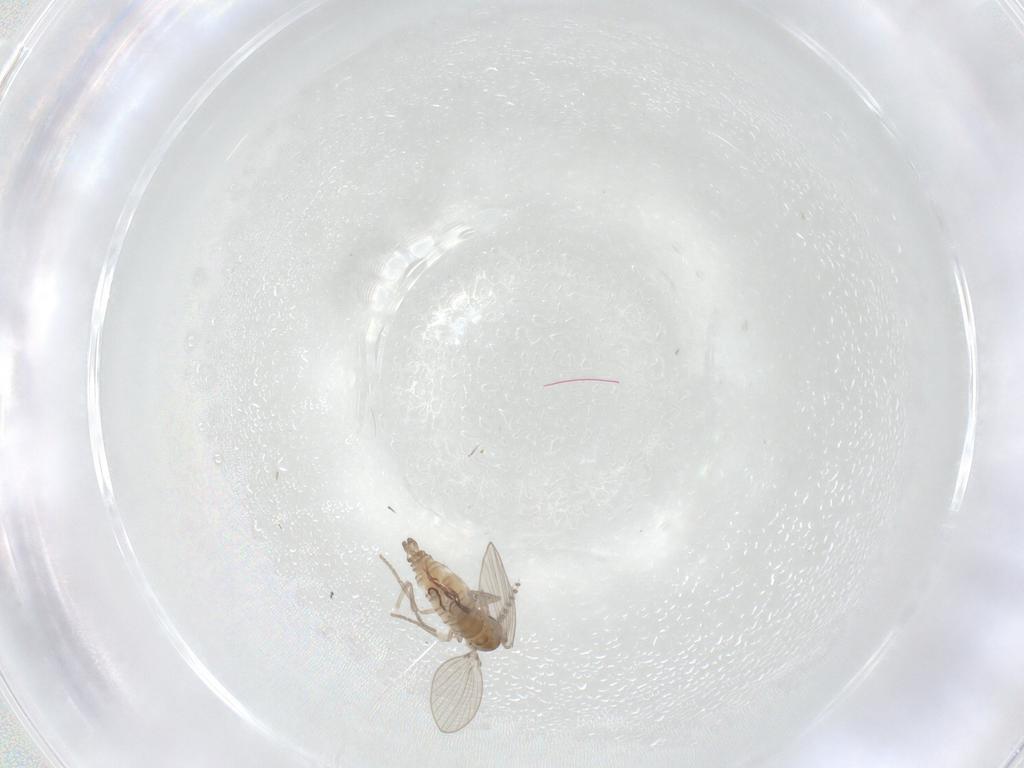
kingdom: Animalia
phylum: Arthropoda
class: Insecta
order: Diptera
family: Psychodidae
